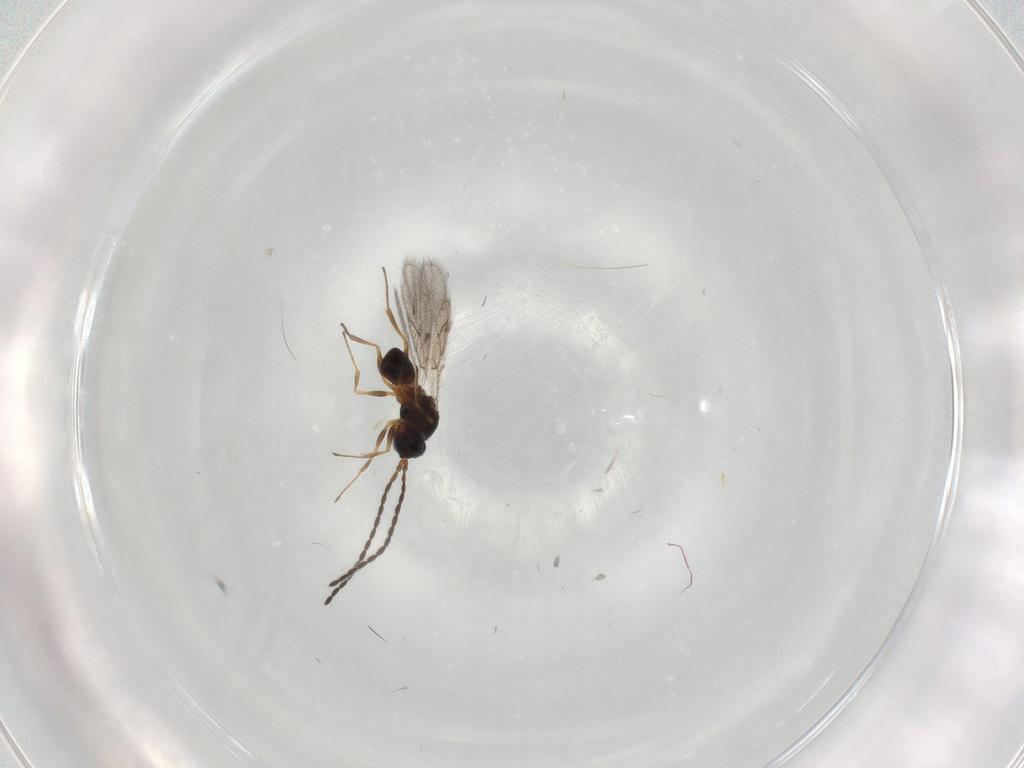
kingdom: Animalia
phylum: Arthropoda
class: Insecta
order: Hymenoptera
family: Figitidae
